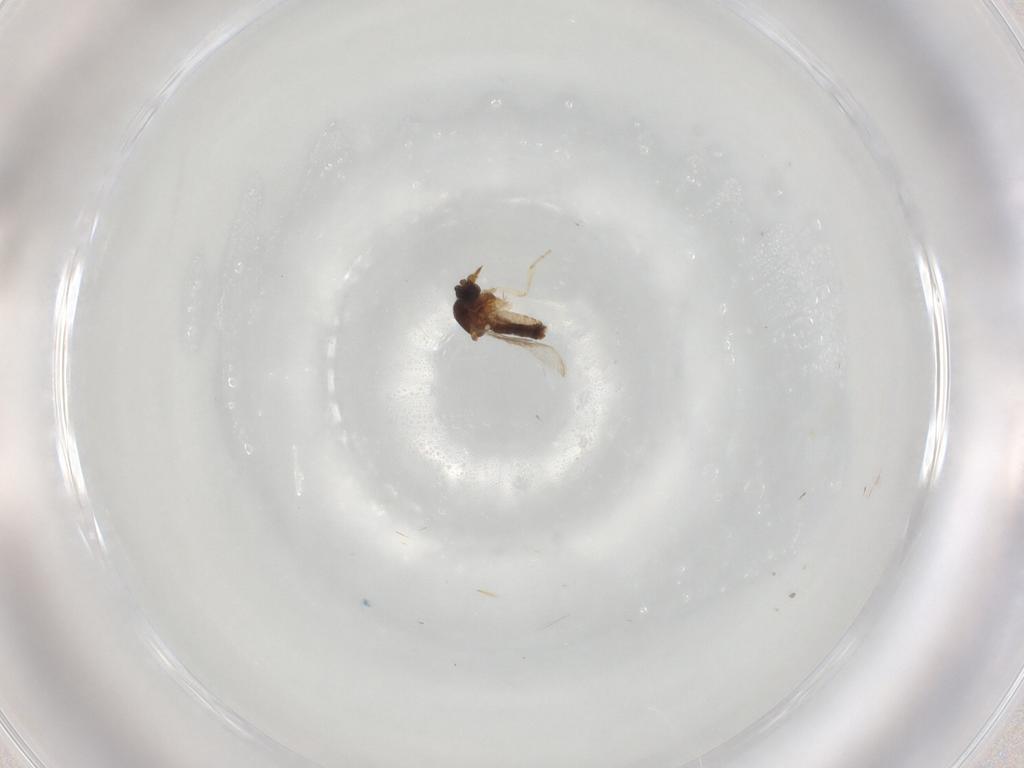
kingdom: Animalia
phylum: Arthropoda
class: Insecta
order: Diptera
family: Ceratopogonidae
